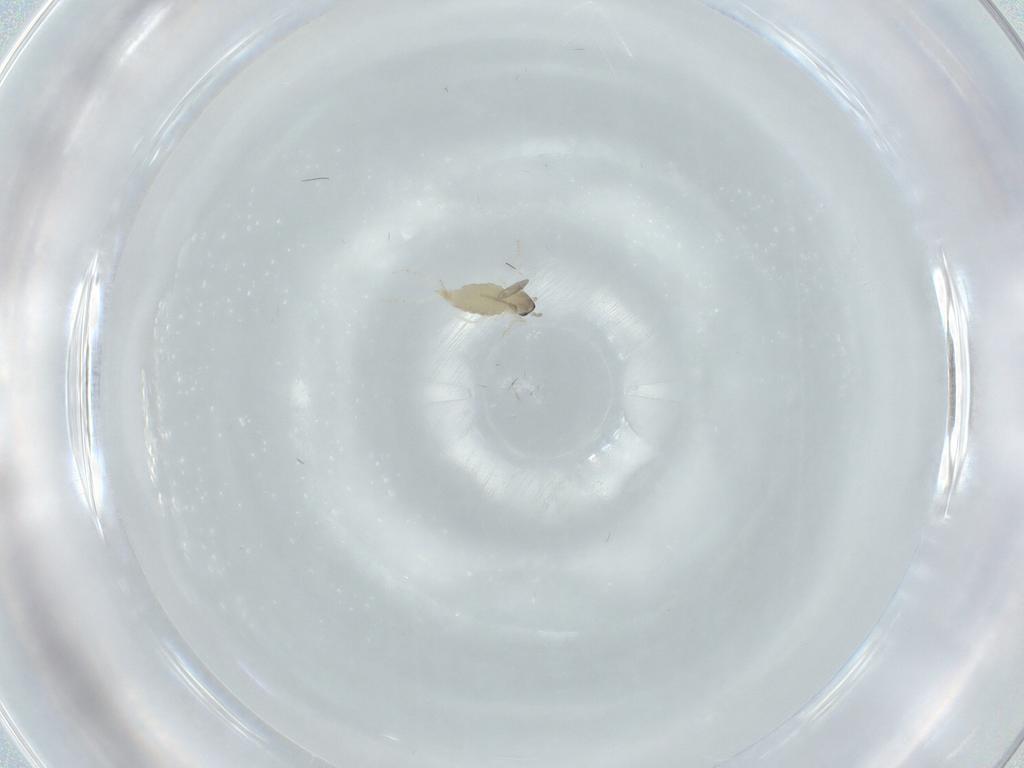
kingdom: Animalia
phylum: Arthropoda
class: Insecta
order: Diptera
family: Cecidomyiidae
